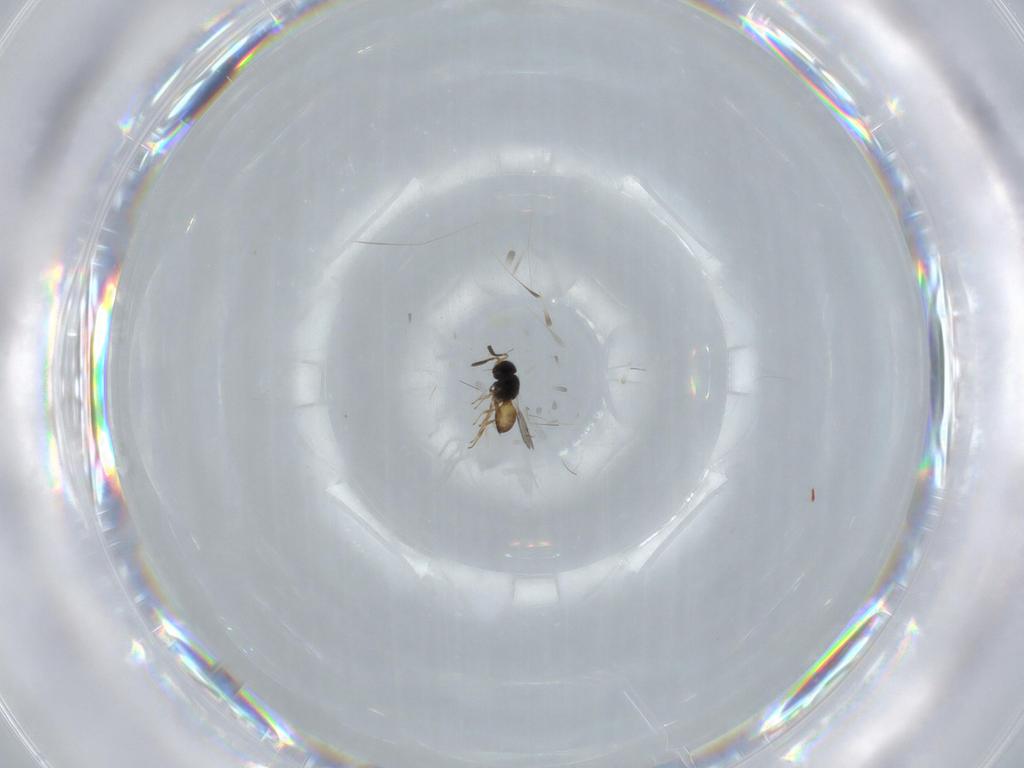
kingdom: Animalia
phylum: Arthropoda
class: Insecta
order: Hymenoptera
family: Scelionidae
